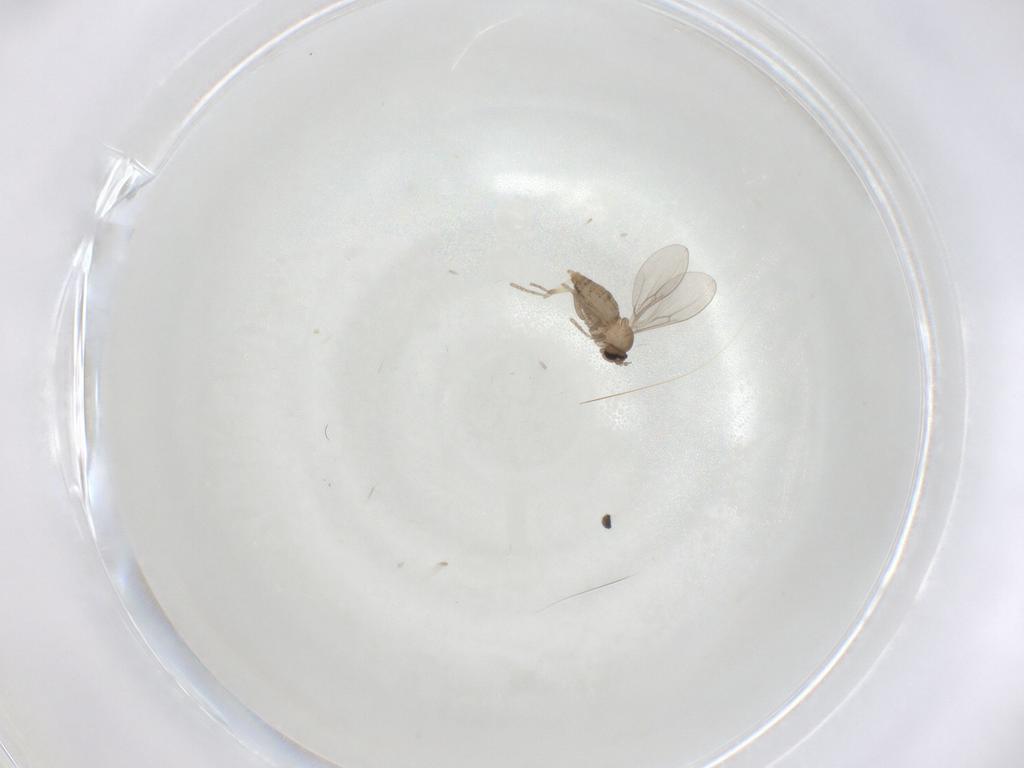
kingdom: Animalia
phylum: Arthropoda
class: Insecta
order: Diptera
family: Cecidomyiidae
